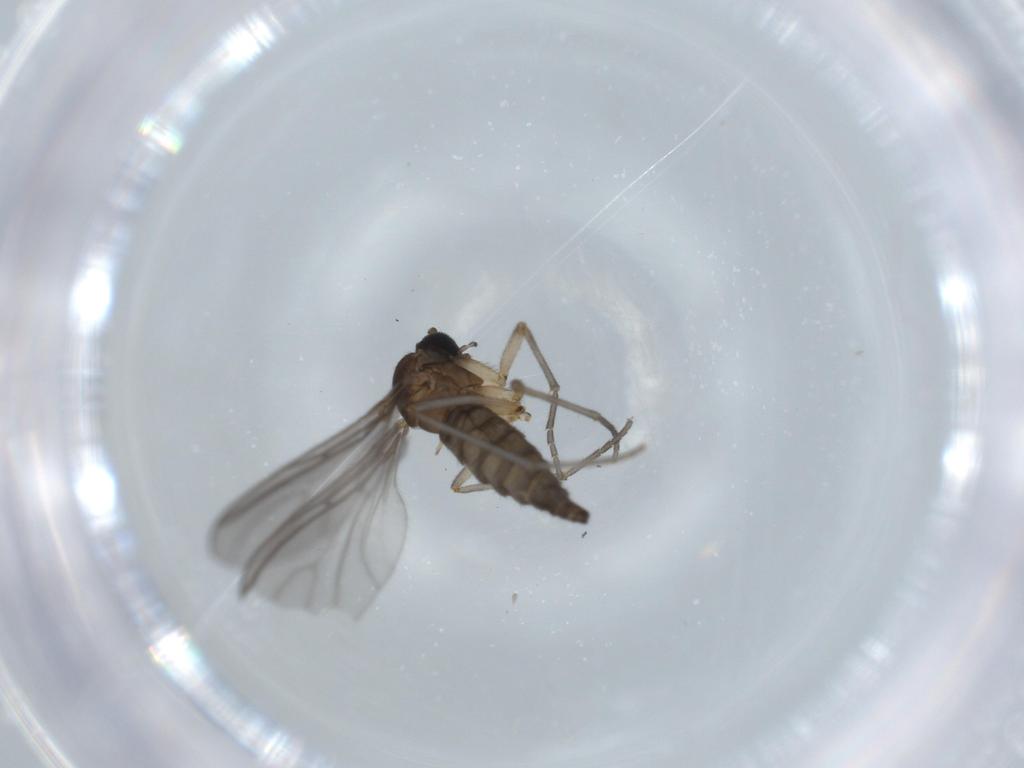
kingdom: Animalia
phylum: Arthropoda
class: Insecta
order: Diptera
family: Sciaridae
